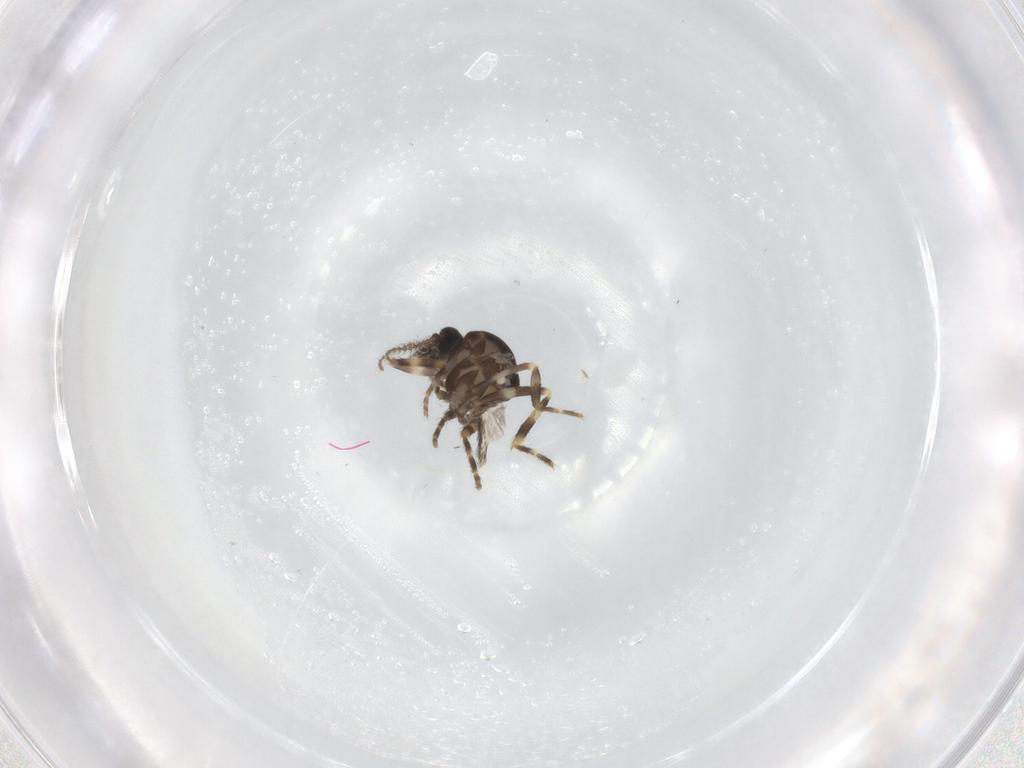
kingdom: Animalia
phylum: Arthropoda
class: Insecta
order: Diptera
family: Ceratopogonidae
